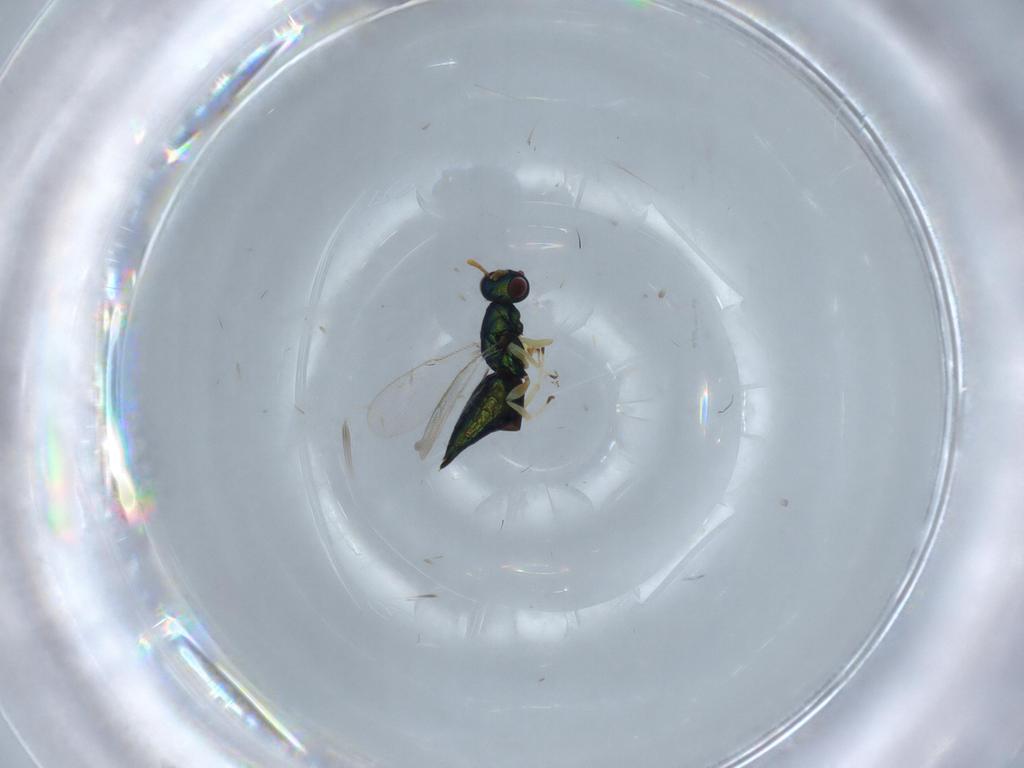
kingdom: Animalia
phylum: Arthropoda
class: Insecta
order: Hymenoptera
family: Pteromalidae
